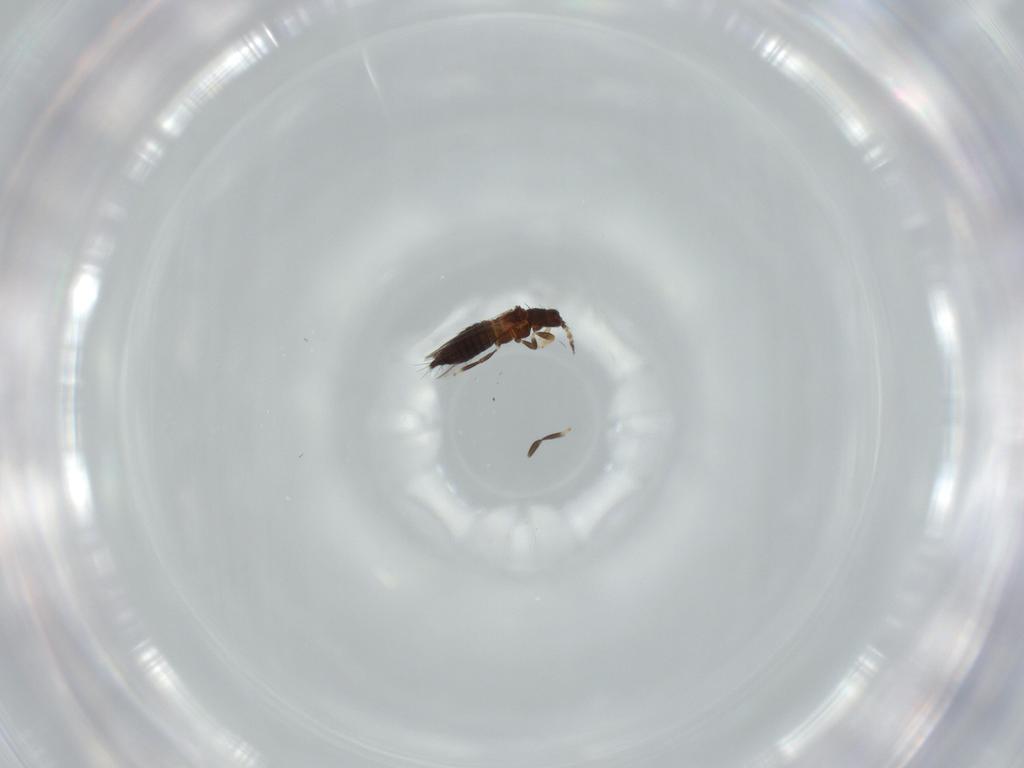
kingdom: Animalia
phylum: Arthropoda
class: Insecta
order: Thysanoptera
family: Thripidae
